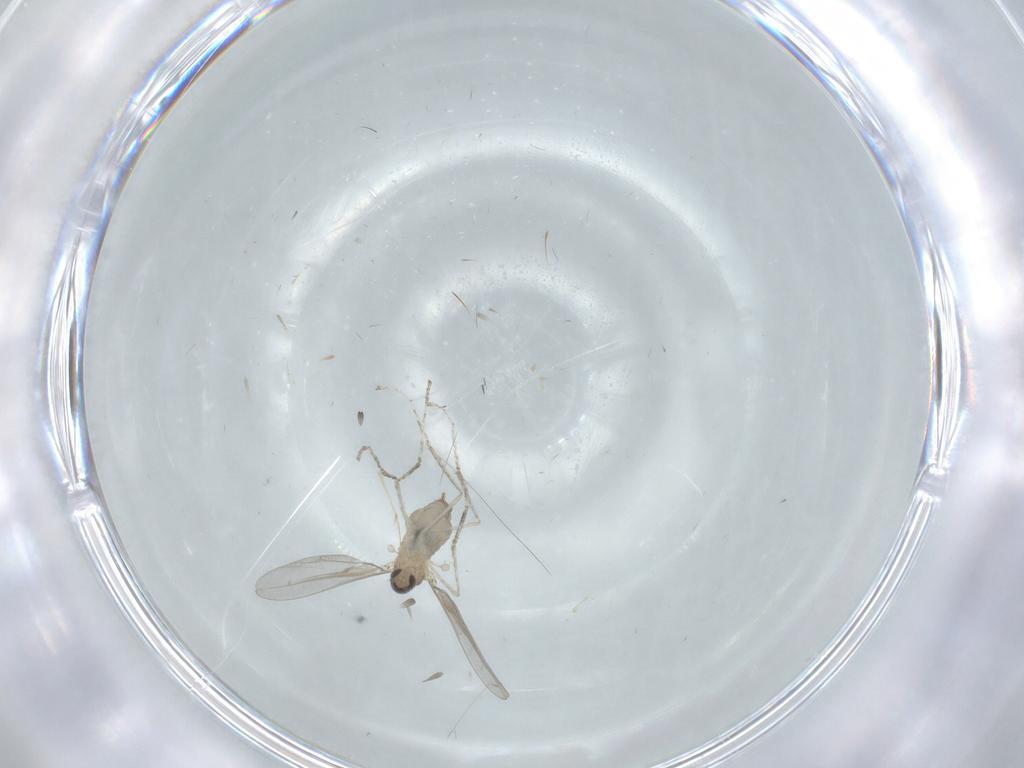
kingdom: Animalia
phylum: Arthropoda
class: Insecta
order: Diptera
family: Cecidomyiidae
